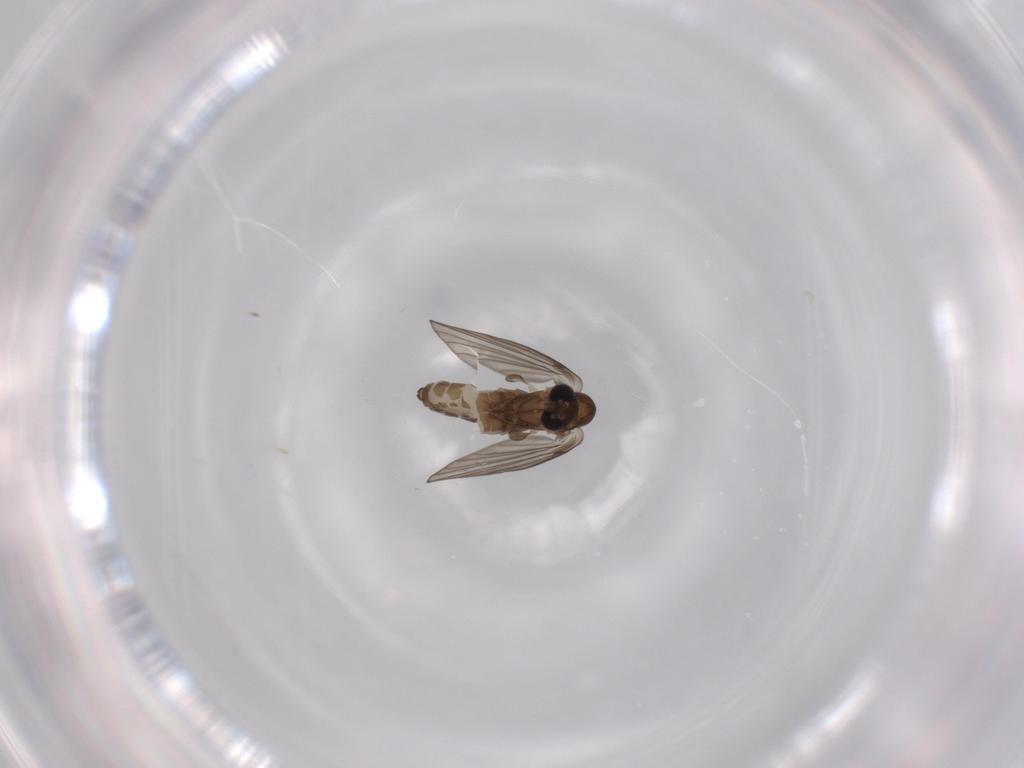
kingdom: Animalia
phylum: Arthropoda
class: Insecta
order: Diptera
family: Psychodidae
